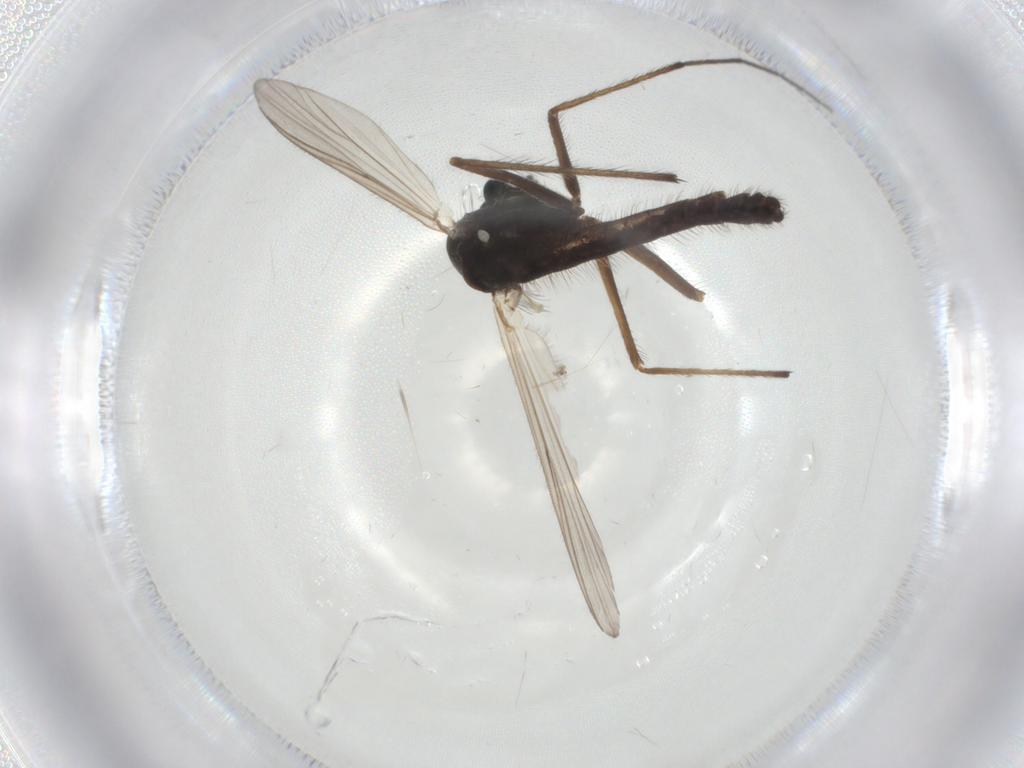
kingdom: Animalia
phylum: Arthropoda
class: Insecta
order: Diptera
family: Chironomidae
